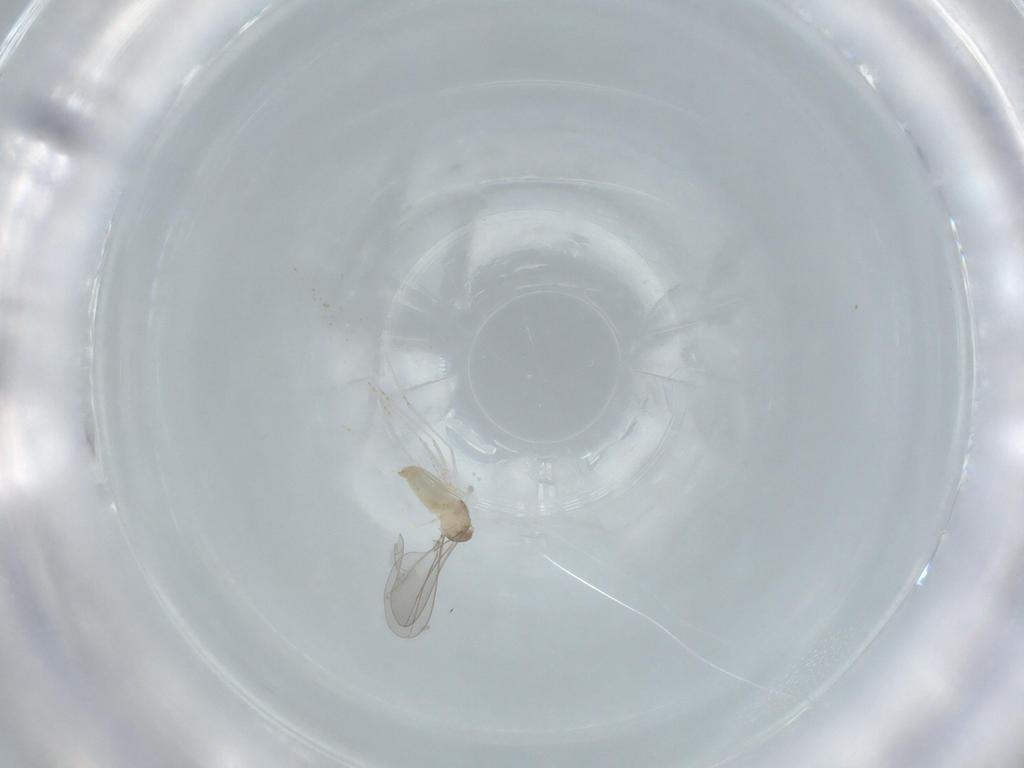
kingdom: Animalia
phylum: Arthropoda
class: Insecta
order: Diptera
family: Cecidomyiidae
